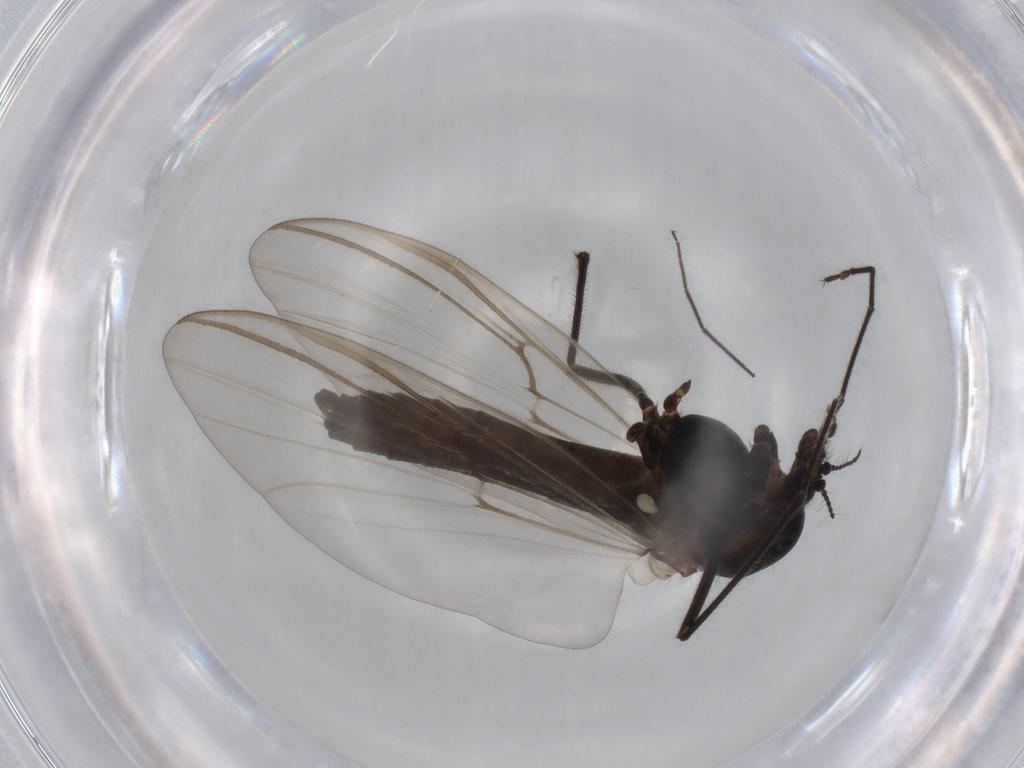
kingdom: Animalia
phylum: Arthropoda
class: Insecta
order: Diptera
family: Chironomidae
